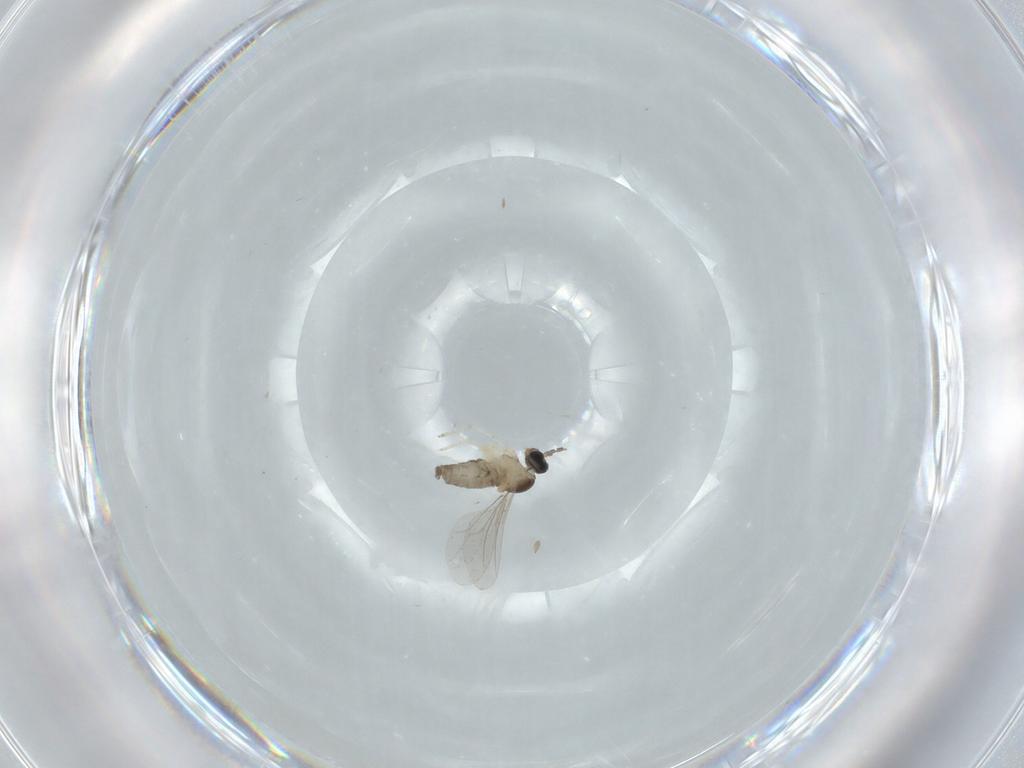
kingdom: Animalia
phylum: Arthropoda
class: Insecta
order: Diptera
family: Cecidomyiidae
